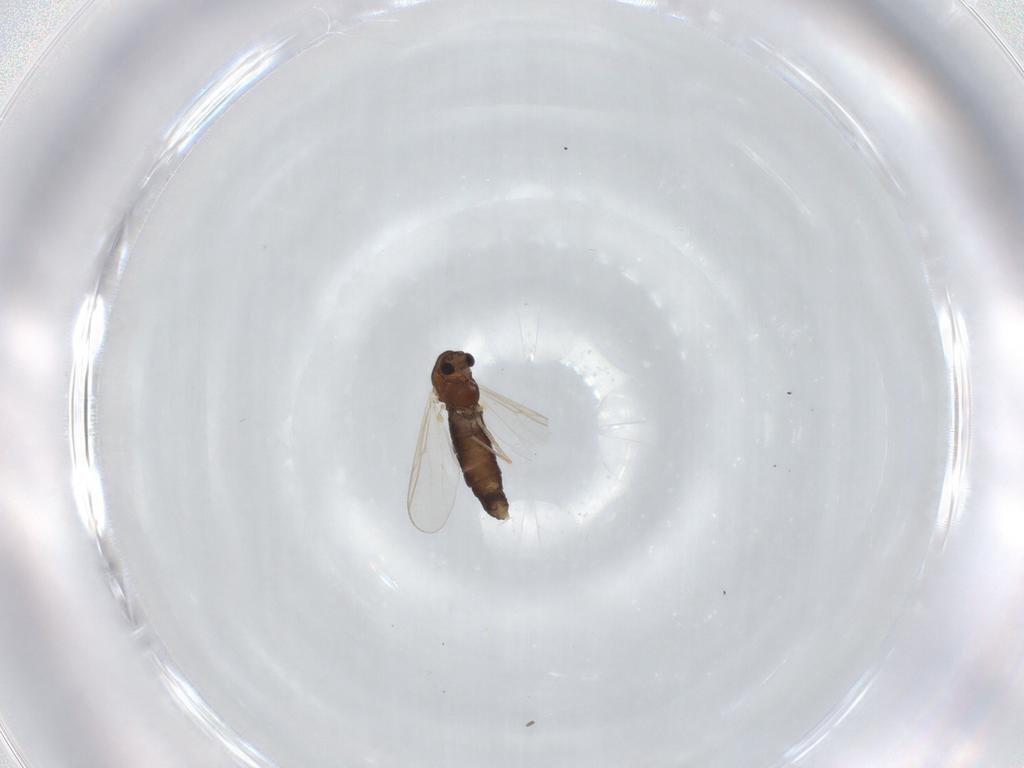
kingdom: Animalia
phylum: Arthropoda
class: Insecta
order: Diptera
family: Chironomidae
